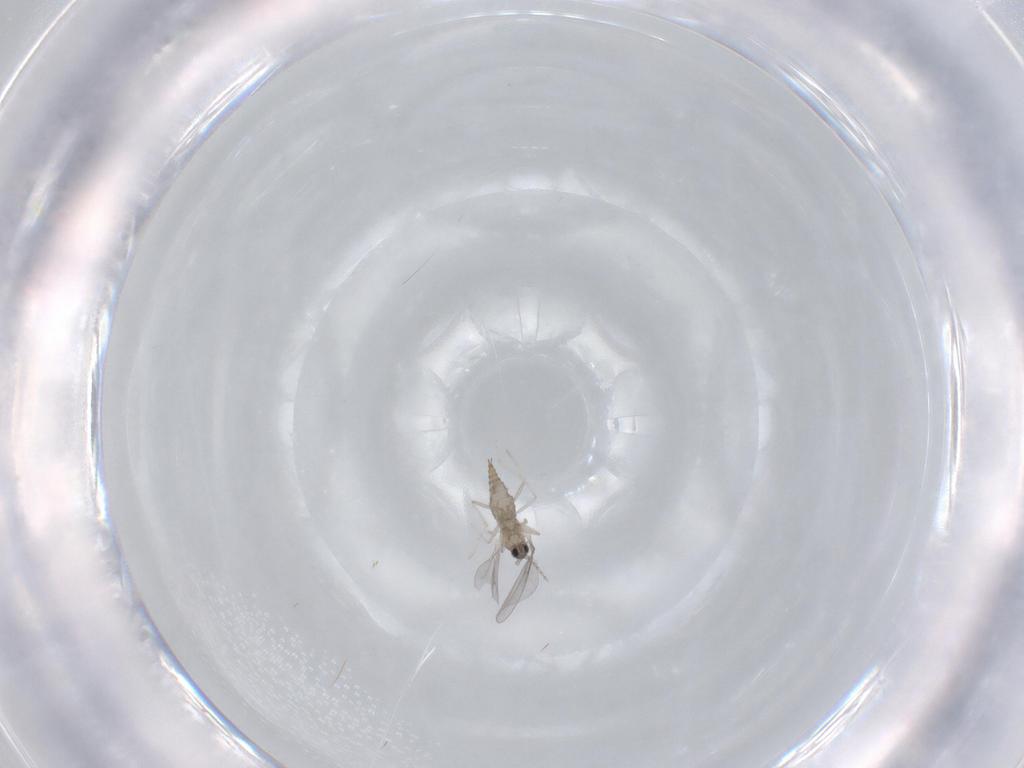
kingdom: Animalia
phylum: Arthropoda
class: Insecta
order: Diptera
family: Cecidomyiidae
